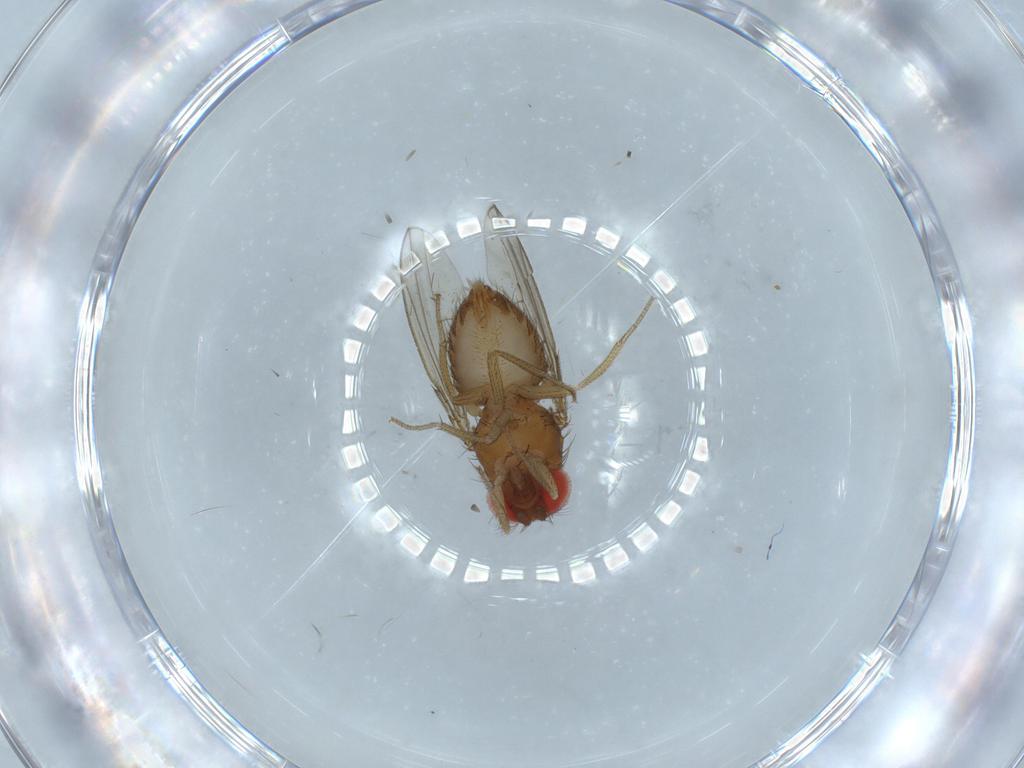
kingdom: Animalia
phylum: Arthropoda
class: Insecta
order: Diptera
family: Drosophilidae
